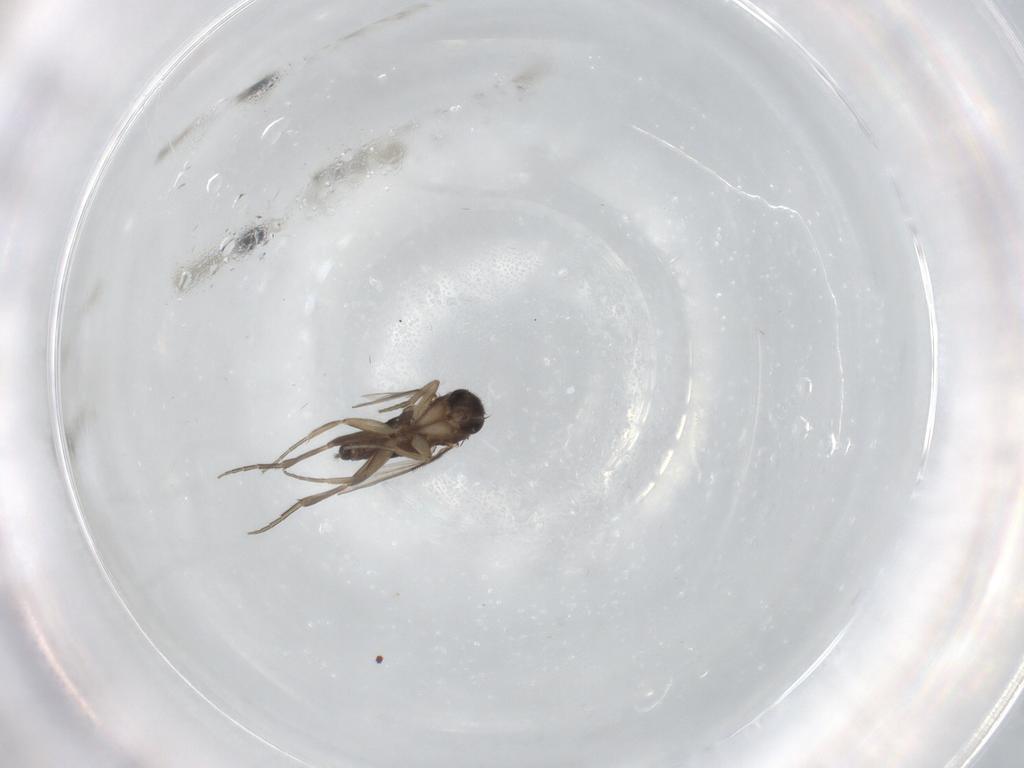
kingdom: Animalia
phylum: Arthropoda
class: Insecta
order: Diptera
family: Phoridae
